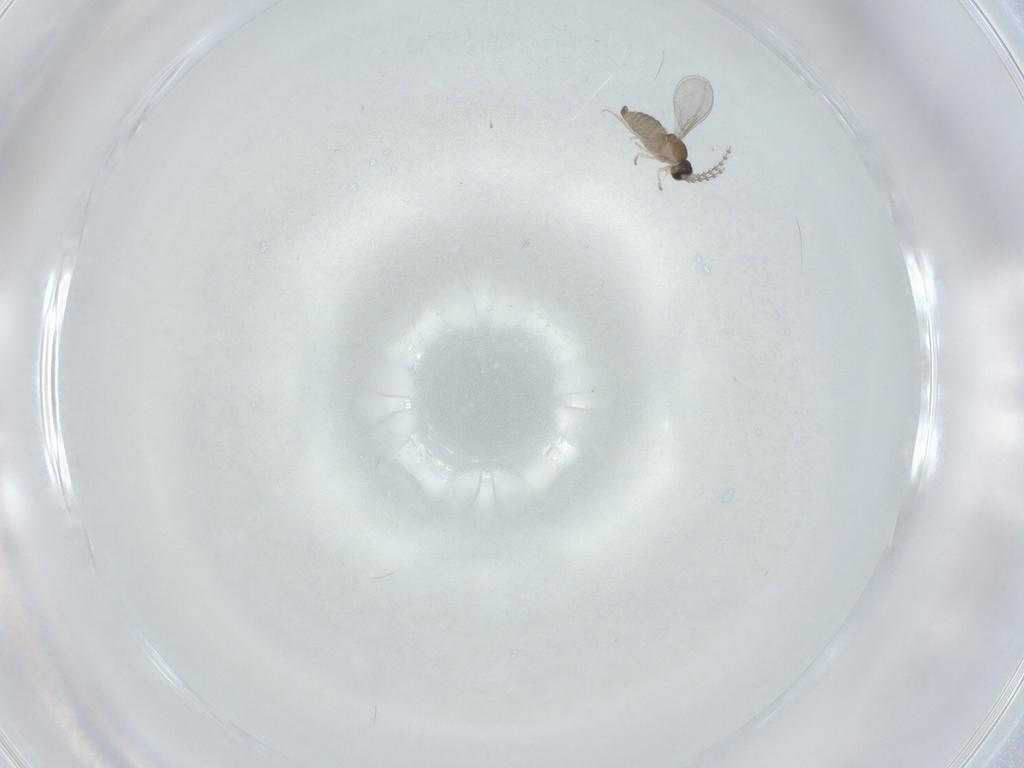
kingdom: Animalia
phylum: Arthropoda
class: Insecta
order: Diptera
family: Cecidomyiidae
